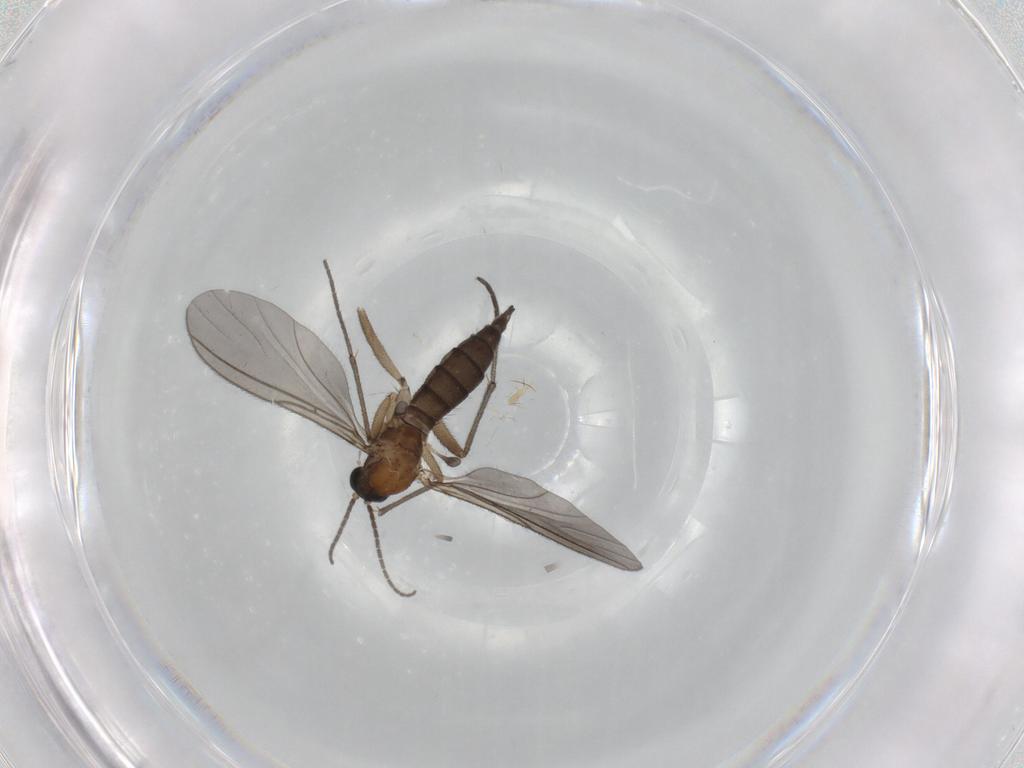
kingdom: Animalia
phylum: Arthropoda
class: Insecta
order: Diptera
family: Sciaridae
